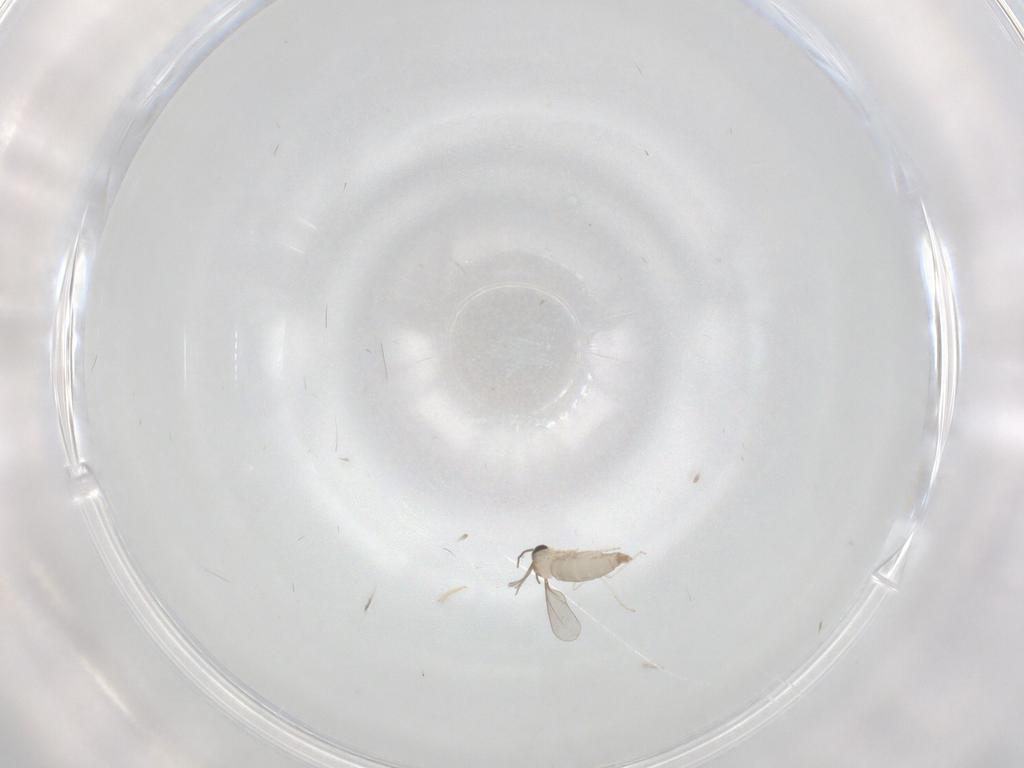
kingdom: Animalia
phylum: Arthropoda
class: Insecta
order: Diptera
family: Cecidomyiidae
